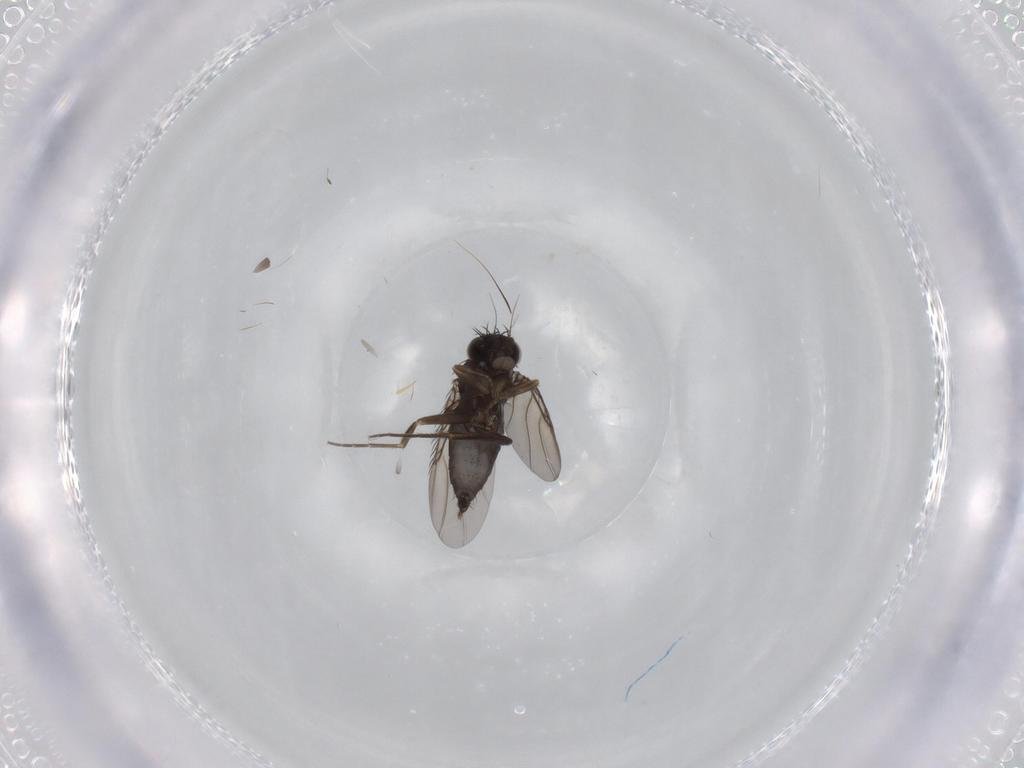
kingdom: Animalia
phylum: Arthropoda
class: Insecta
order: Diptera
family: Phoridae
